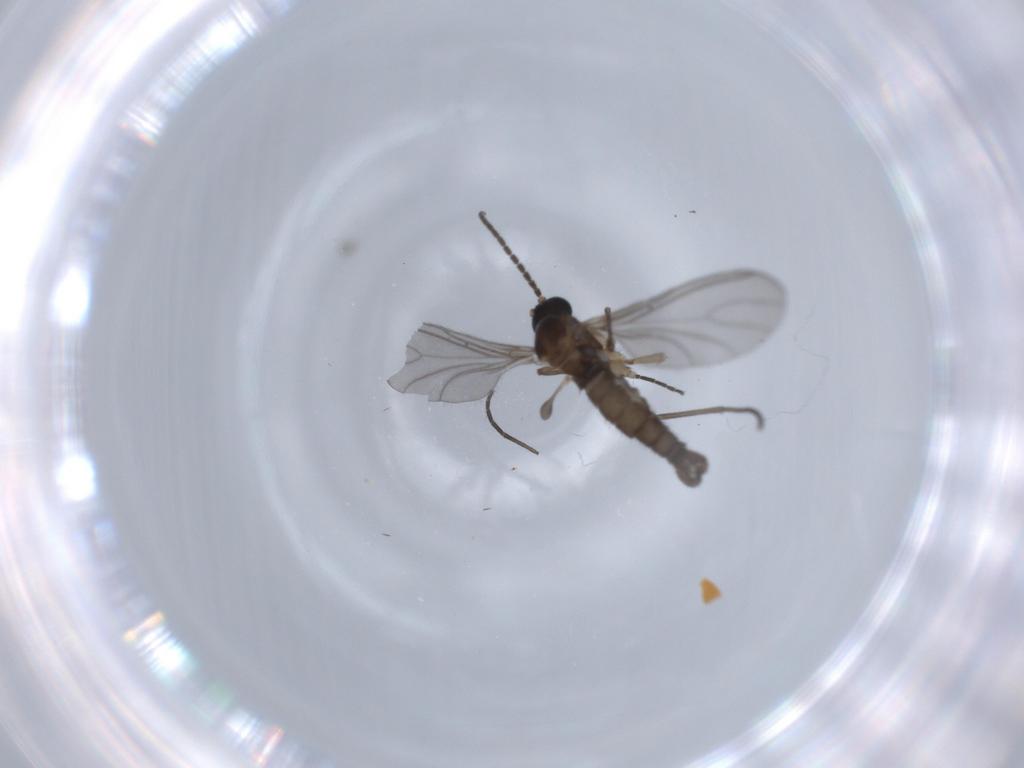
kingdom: Animalia
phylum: Arthropoda
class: Insecta
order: Diptera
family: Sciaridae
